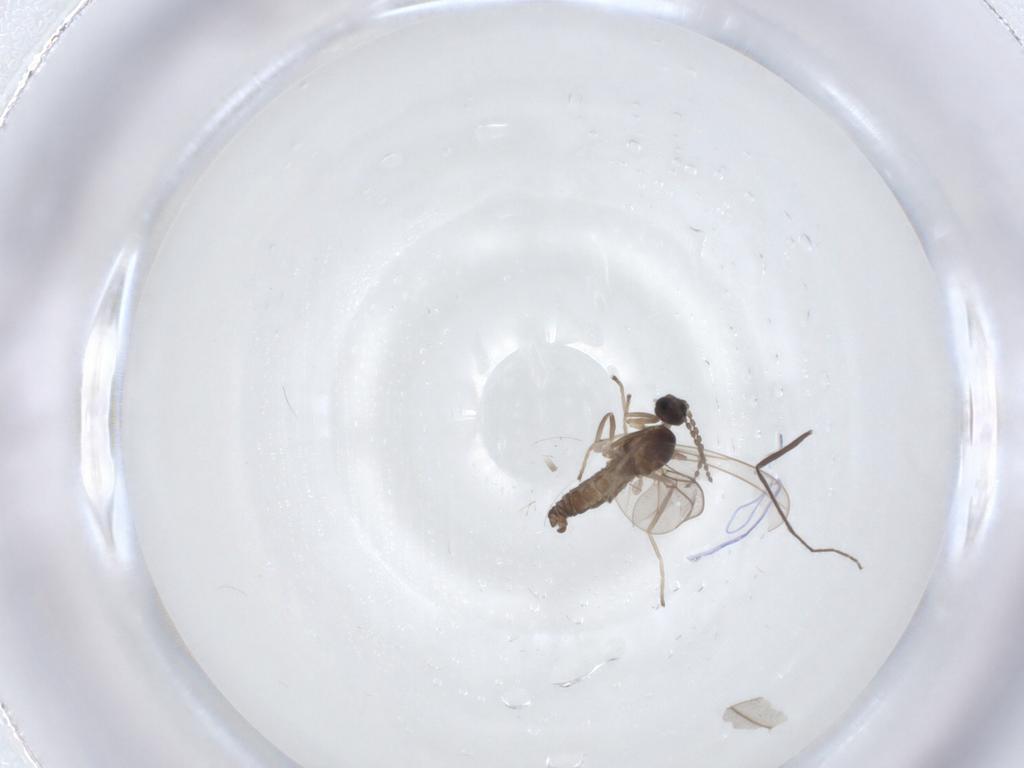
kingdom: Animalia
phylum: Arthropoda
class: Insecta
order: Diptera
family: Cecidomyiidae
